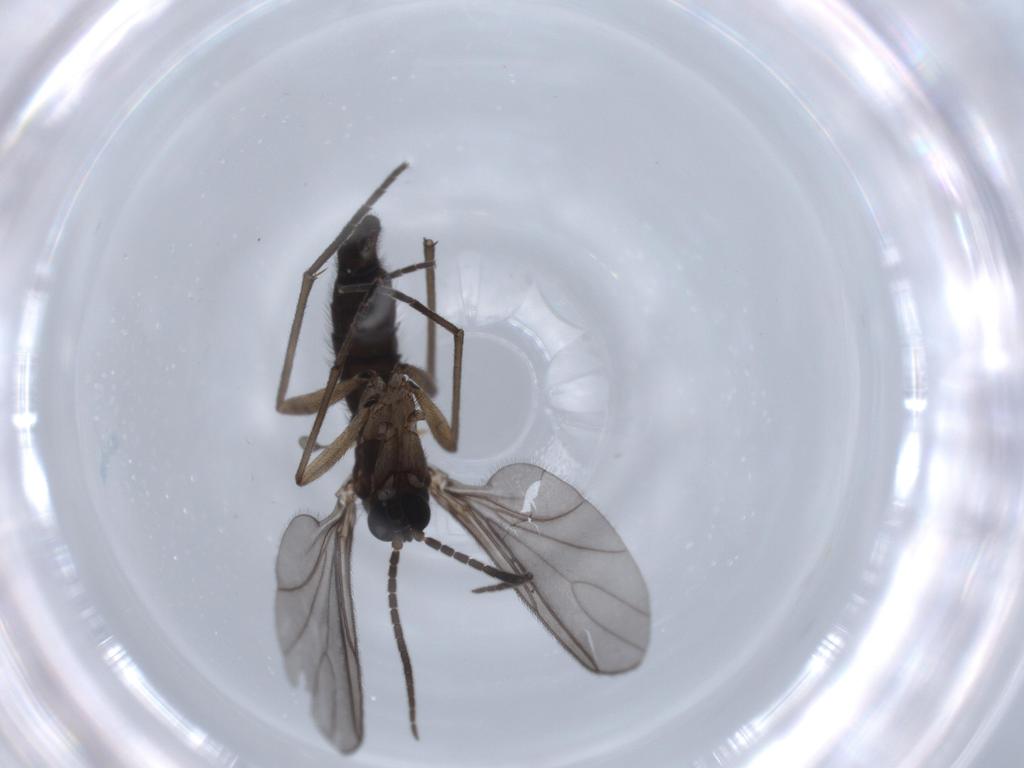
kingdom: Animalia
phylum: Arthropoda
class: Insecta
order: Diptera
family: Sciaridae
